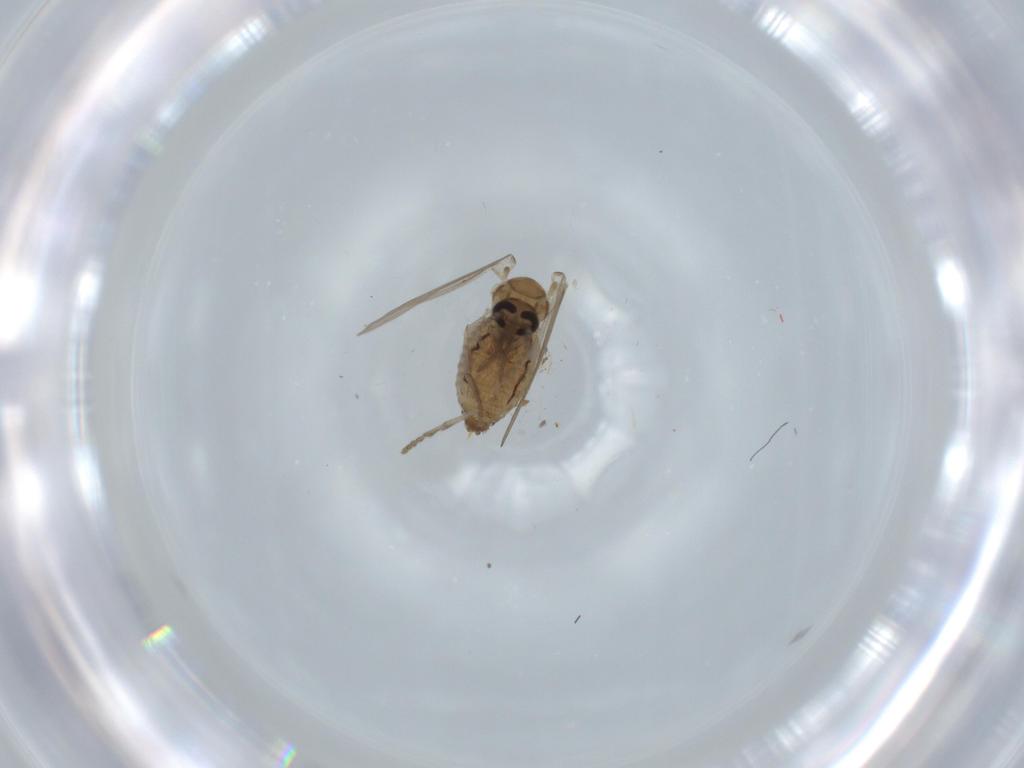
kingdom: Animalia
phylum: Arthropoda
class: Insecta
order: Diptera
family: Psychodidae
